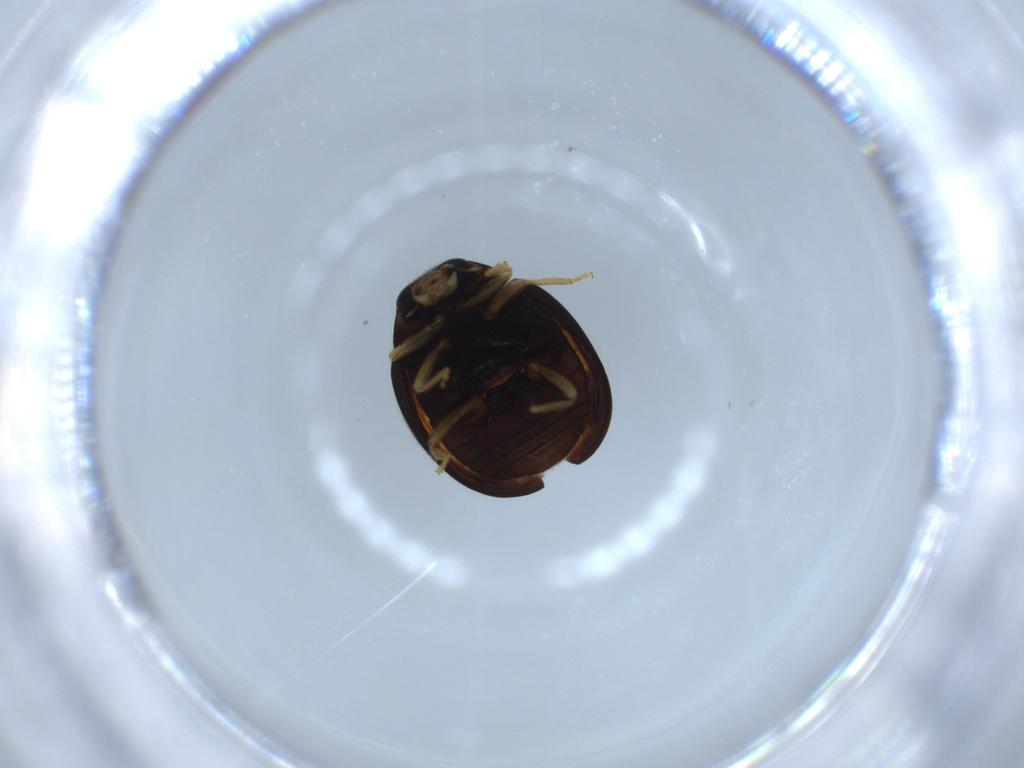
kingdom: Animalia
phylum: Arthropoda
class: Insecta
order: Coleoptera
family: Coccinellidae
